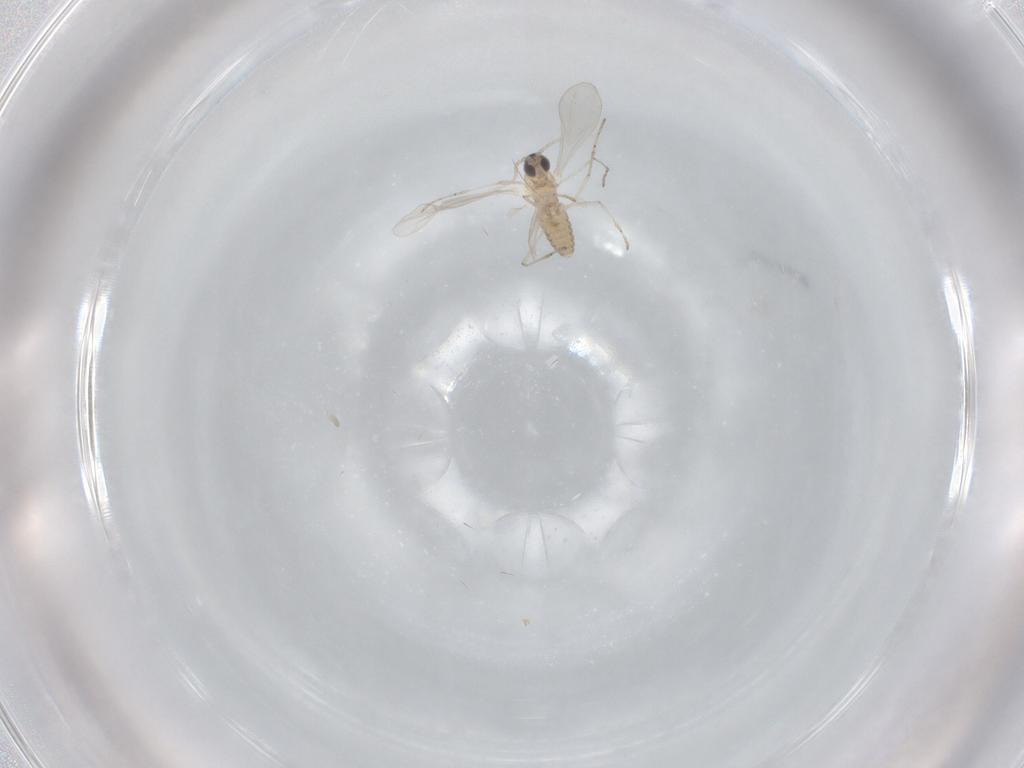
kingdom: Animalia
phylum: Arthropoda
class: Insecta
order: Diptera
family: Cecidomyiidae
